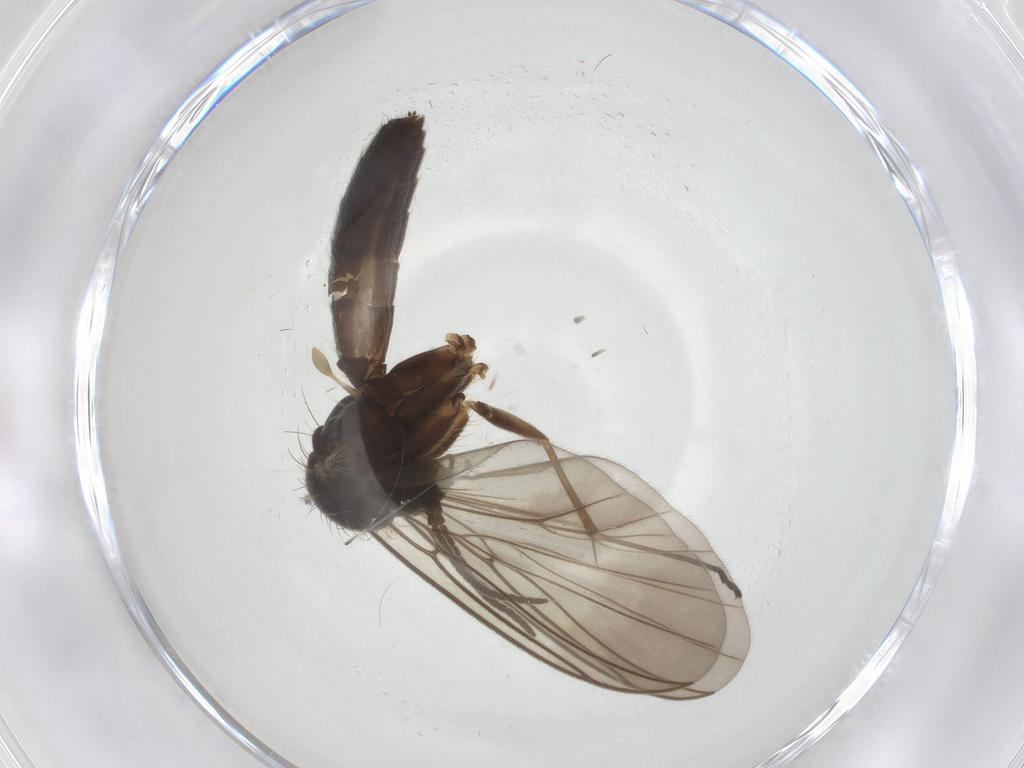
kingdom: Animalia
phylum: Arthropoda
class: Insecta
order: Diptera
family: Mycetophilidae
